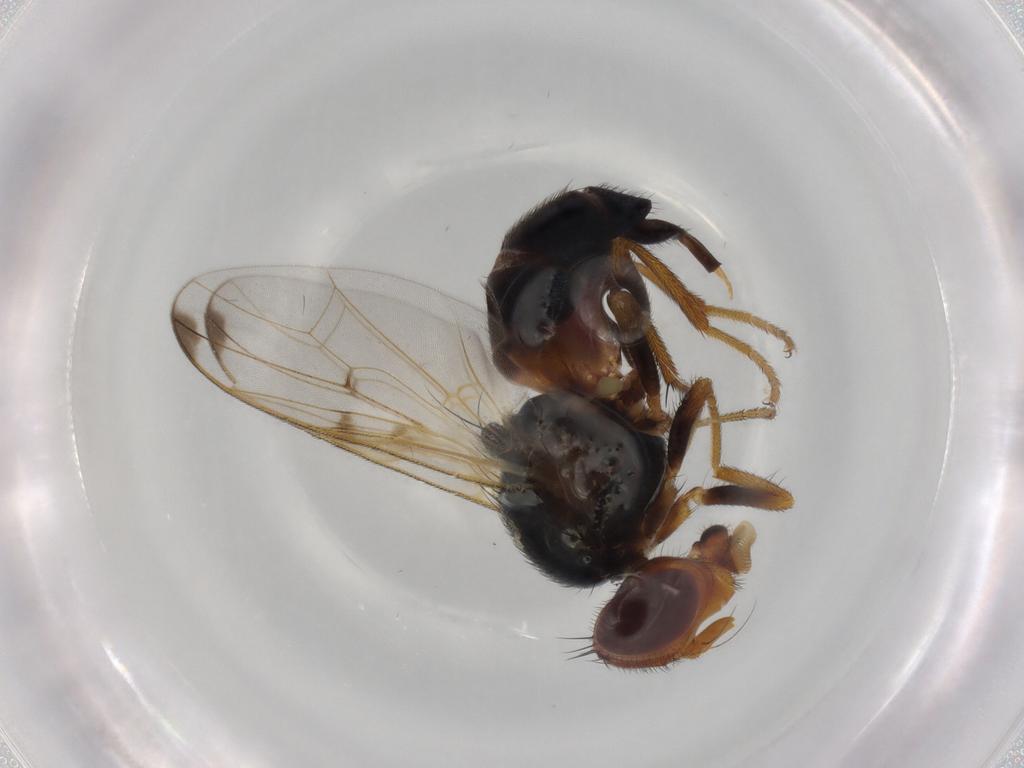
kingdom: Animalia
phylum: Arthropoda
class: Insecta
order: Diptera
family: Platystomatidae
